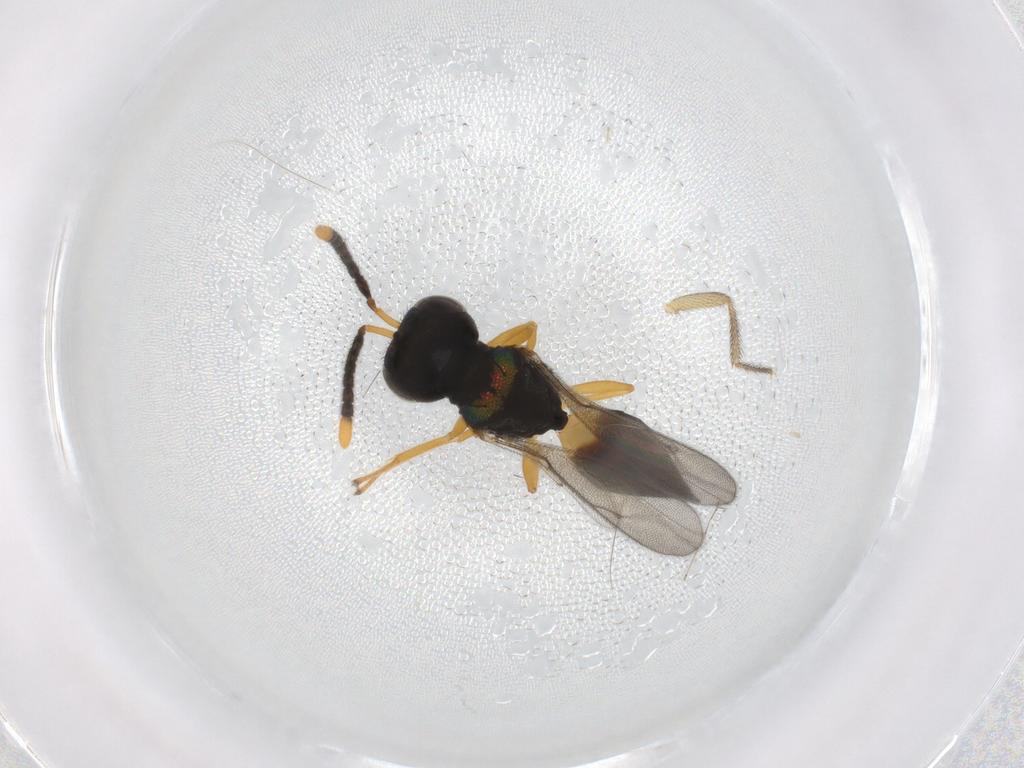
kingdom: Animalia
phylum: Arthropoda
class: Insecta
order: Hymenoptera
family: Pteromalidae
